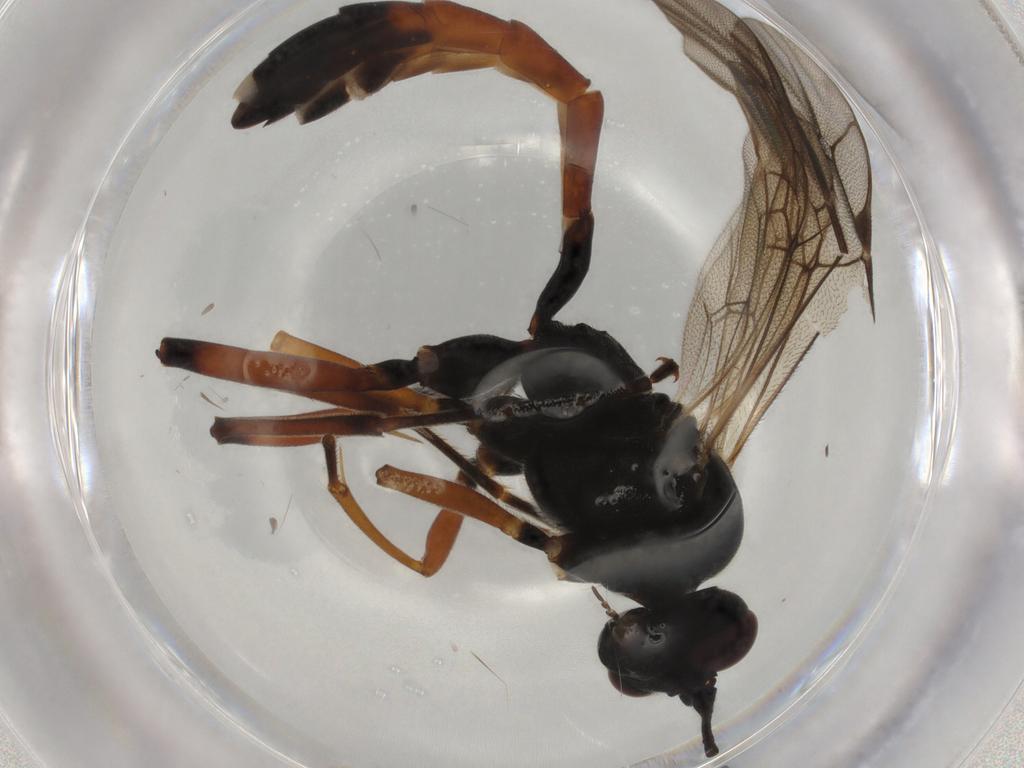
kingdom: Animalia
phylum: Arthropoda
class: Insecta
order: Hymenoptera
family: Ichneumonidae
